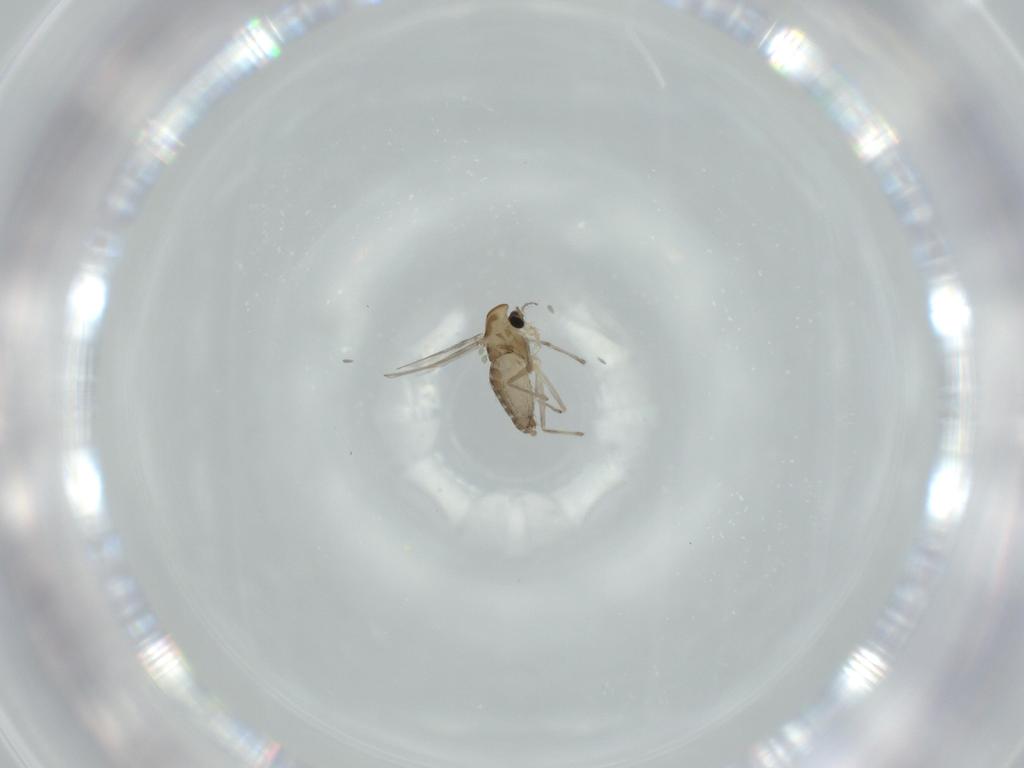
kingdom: Animalia
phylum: Arthropoda
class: Insecta
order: Diptera
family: Chironomidae
